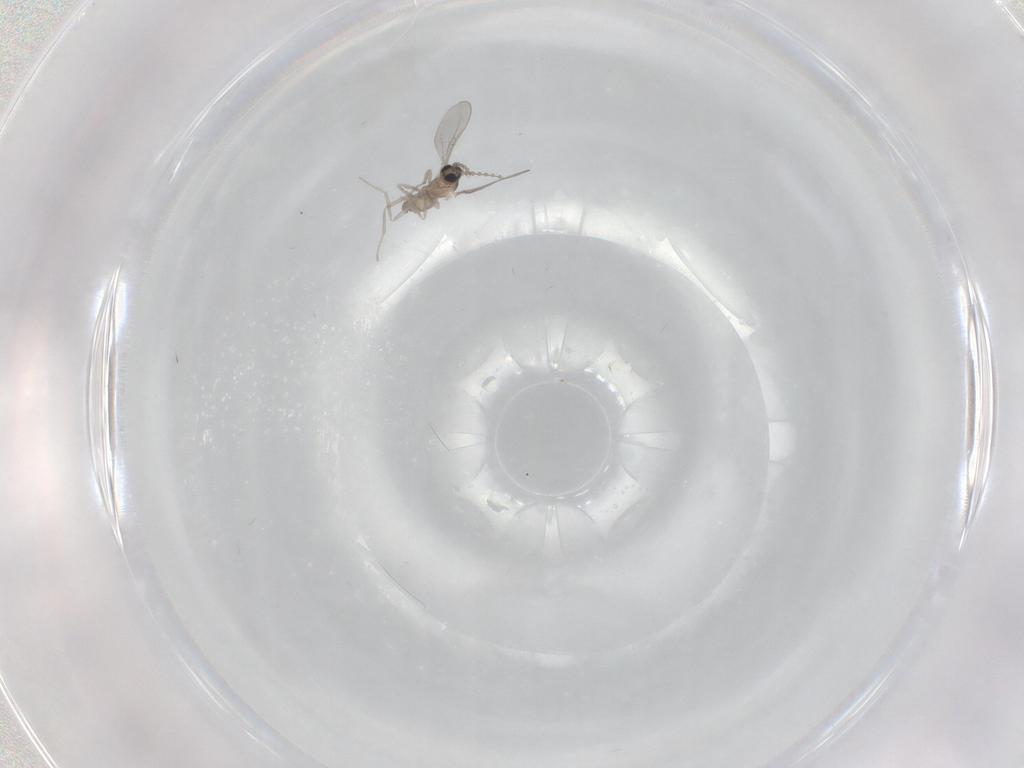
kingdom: Animalia
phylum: Arthropoda
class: Insecta
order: Diptera
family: Cecidomyiidae
